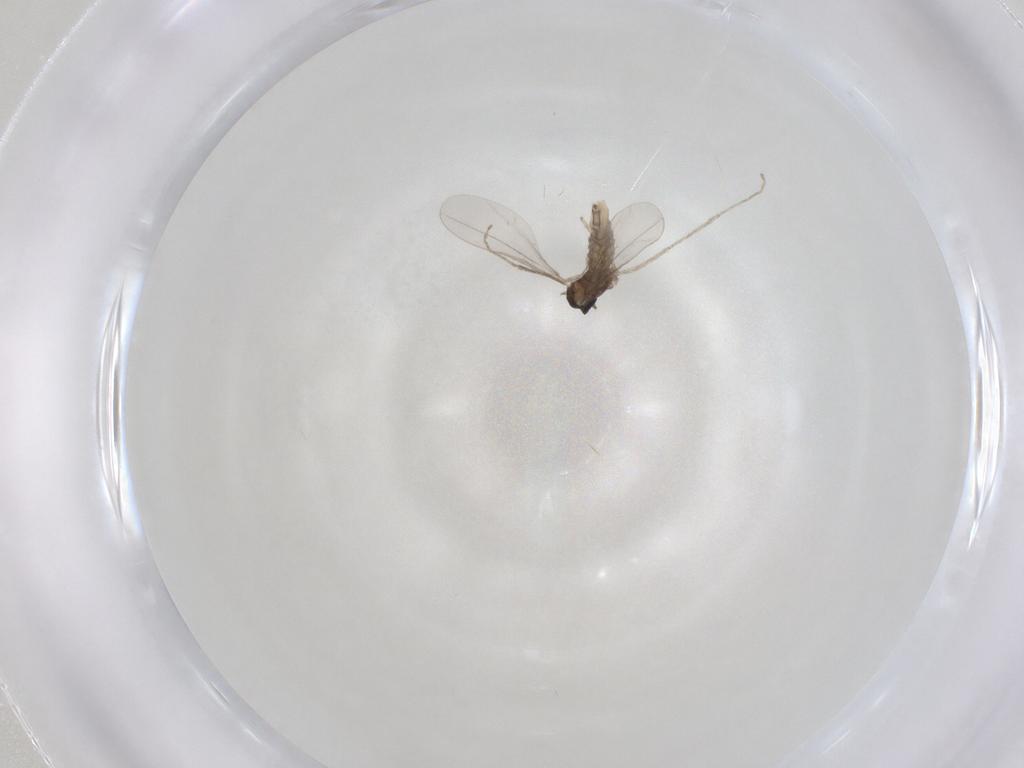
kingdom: Animalia
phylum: Arthropoda
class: Insecta
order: Diptera
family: Cecidomyiidae
